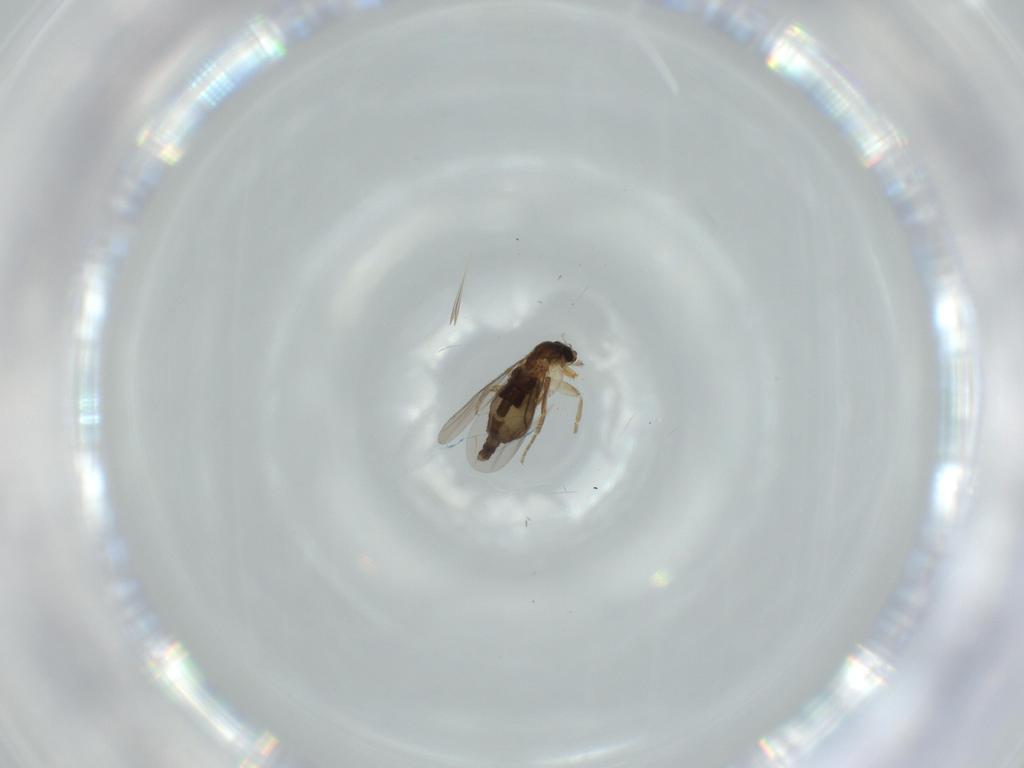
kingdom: Animalia
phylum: Arthropoda
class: Insecta
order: Diptera
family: Phoridae
